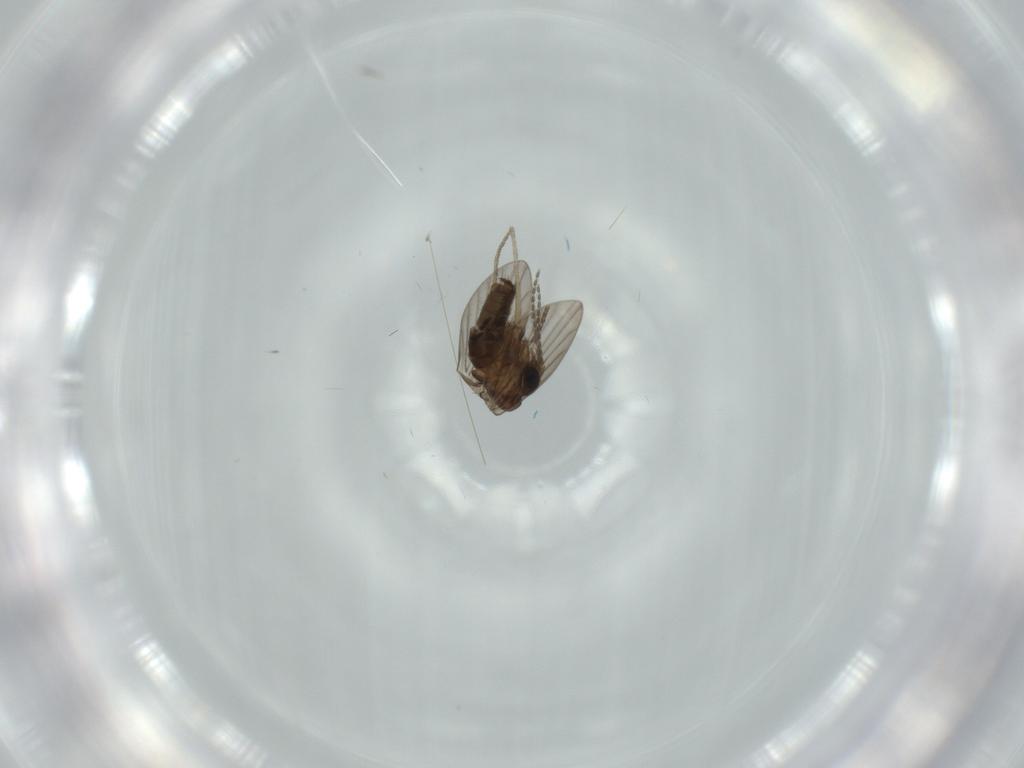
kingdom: Animalia
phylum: Arthropoda
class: Insecta
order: Diptera
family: Psychodidae
